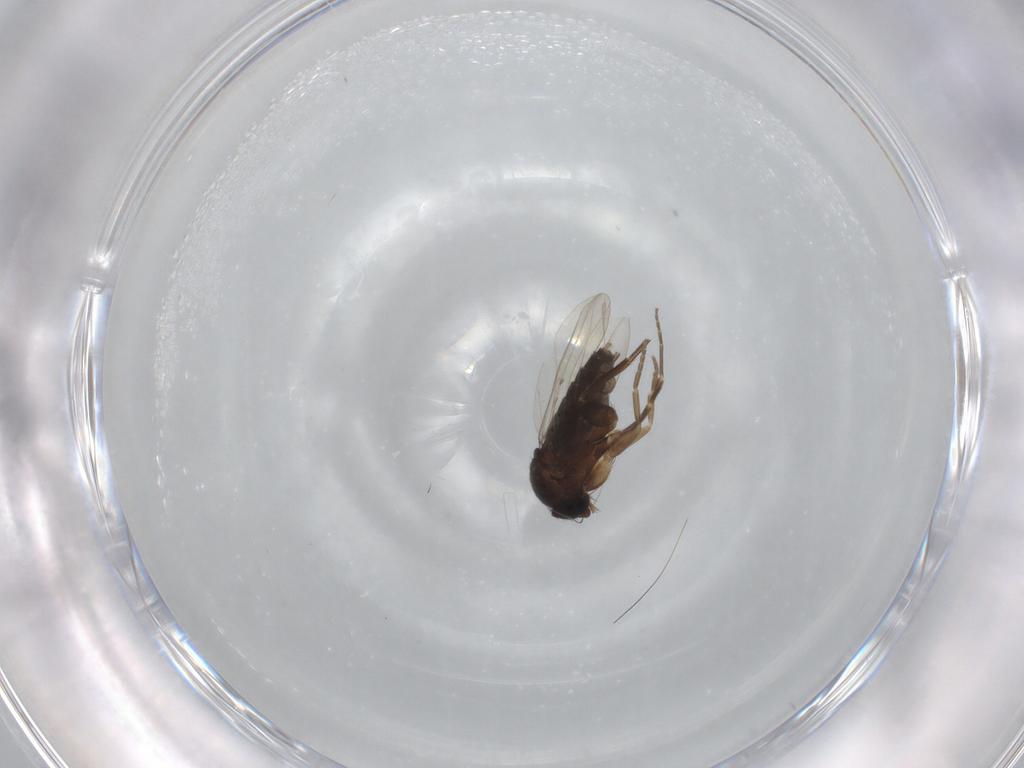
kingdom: Animalia
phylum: Arthropoda
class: Insecta
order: Diptera
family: Phoridae
